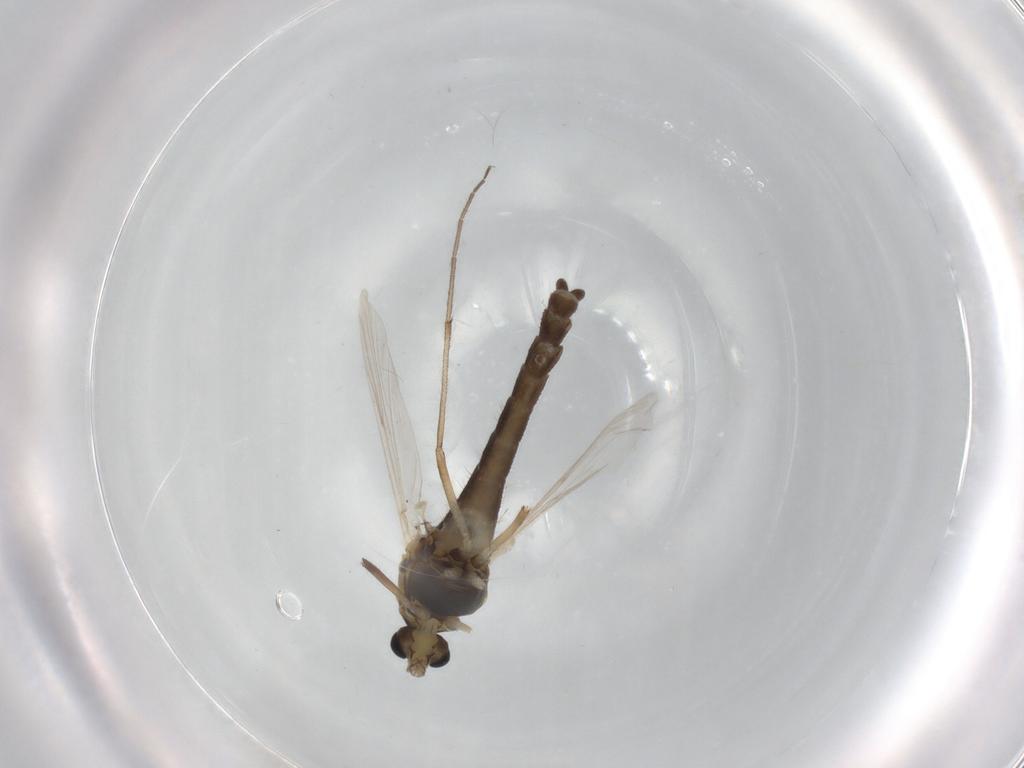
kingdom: Animalia
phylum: Arthropoda
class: Insecta
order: Diptera
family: Chironomidae
